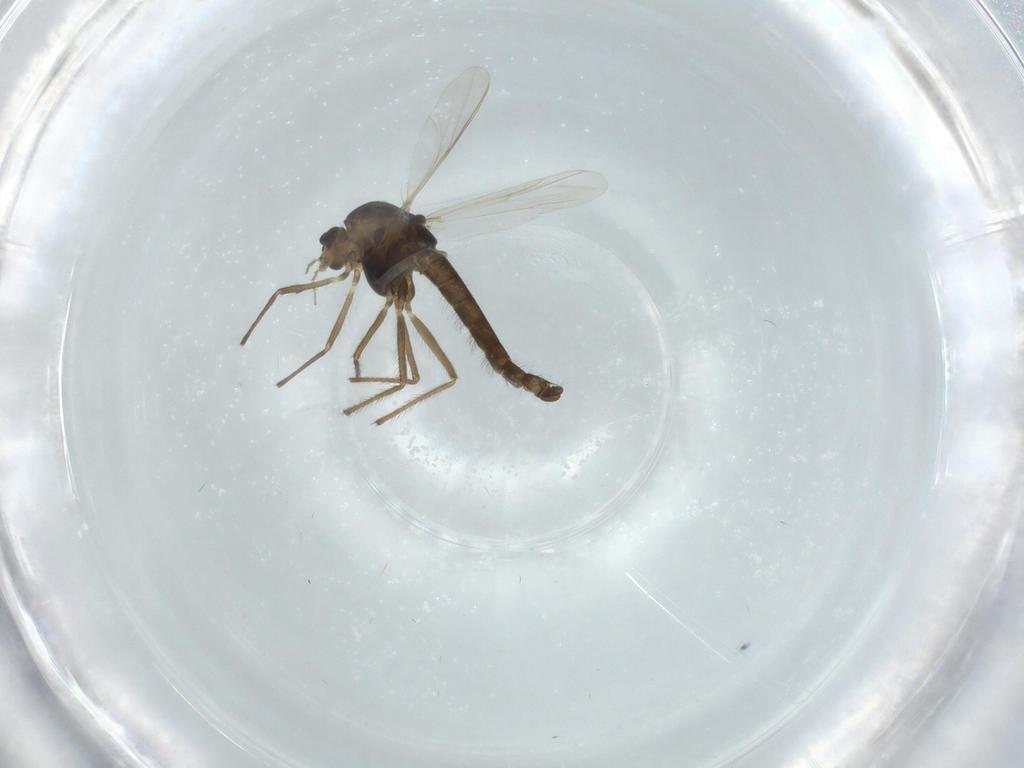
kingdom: Animalia
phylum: Arthropoda
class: Insecta
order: Diptera
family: Chironomidae
